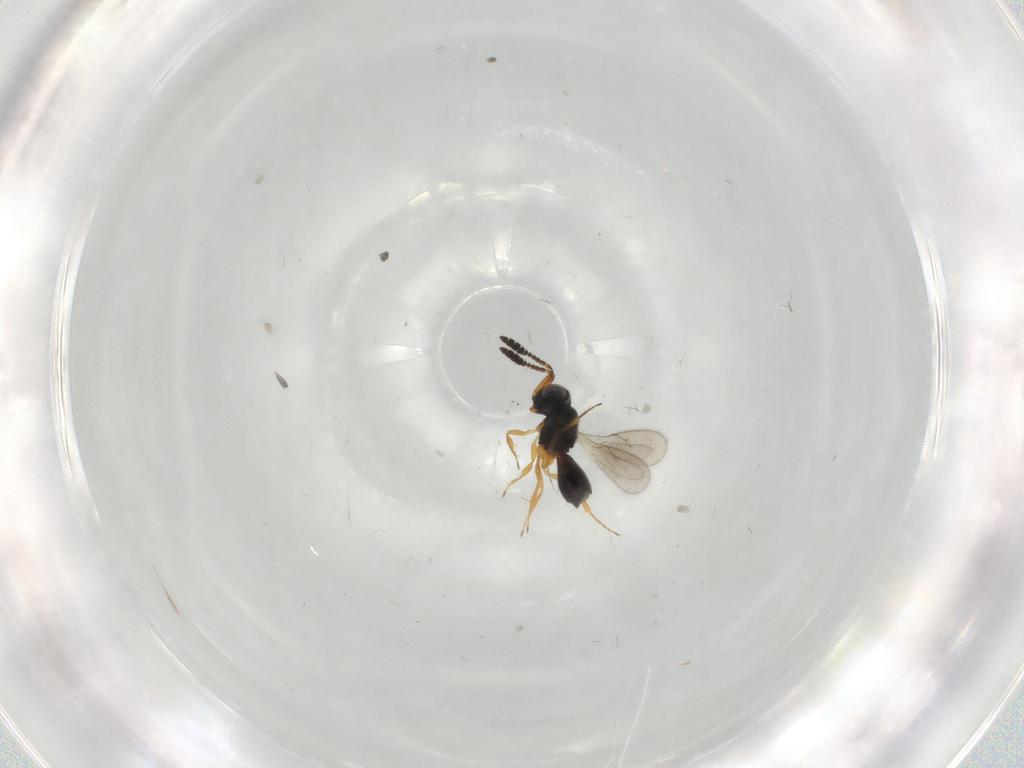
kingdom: Animalia
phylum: Arthropoda
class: Insecta
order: Hymenoptera
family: Scelionidae
